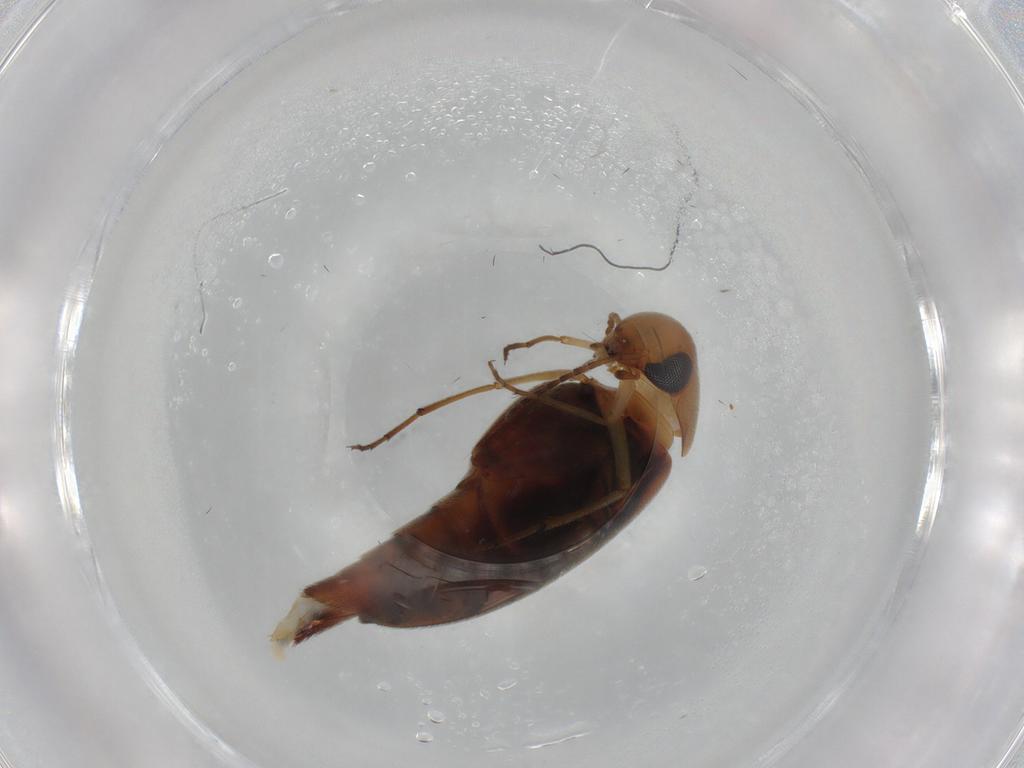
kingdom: Animalia
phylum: Arthropoda
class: Insecta
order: Coleoptera
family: Mordellidae
